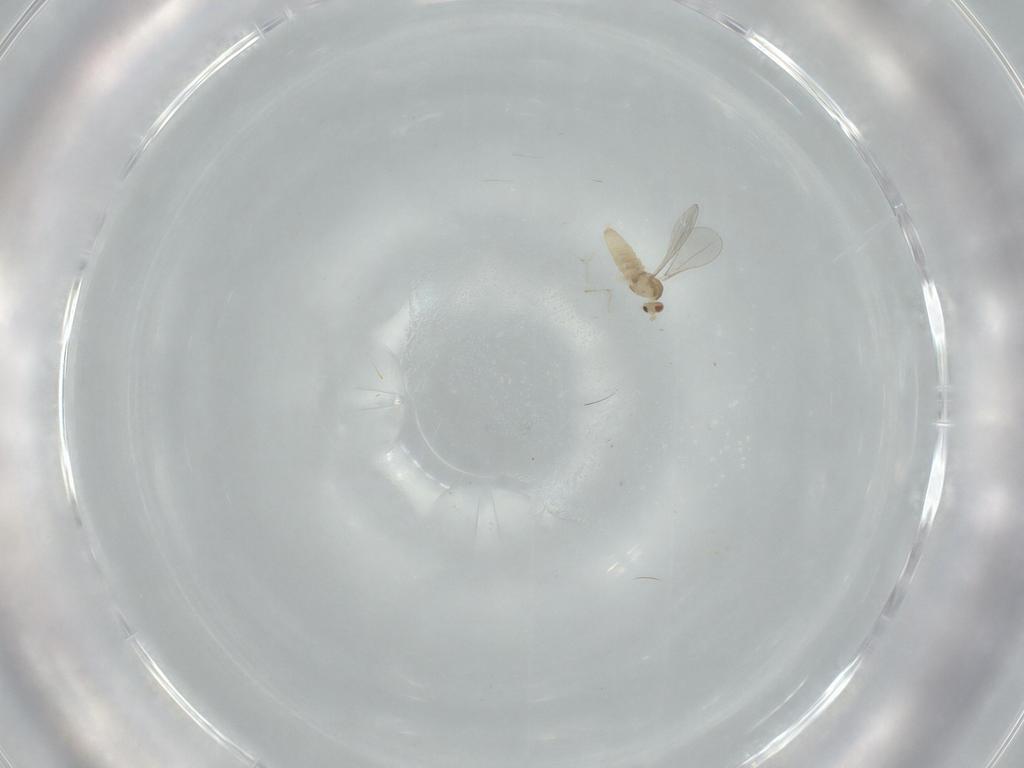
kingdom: Animalia
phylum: Arthropoda
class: Insecta
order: Diptera
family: Cecidomyiidae
